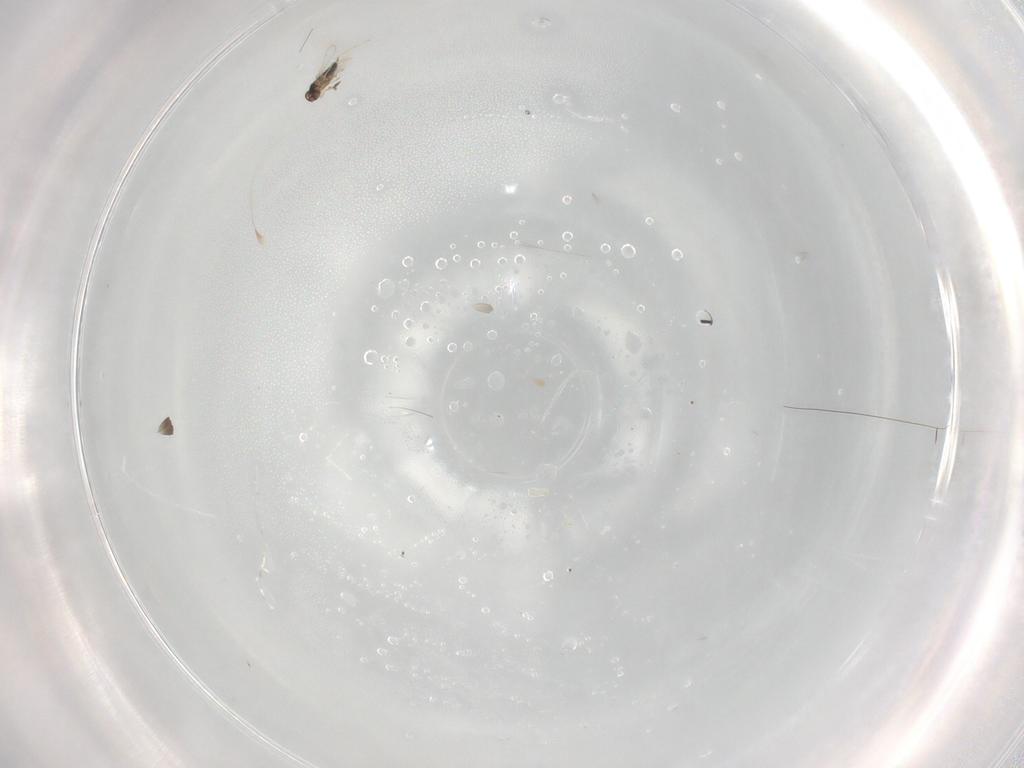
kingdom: Animalia
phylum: Arthropoda
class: Insecta
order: Hymenoptera
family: Mymaridae
